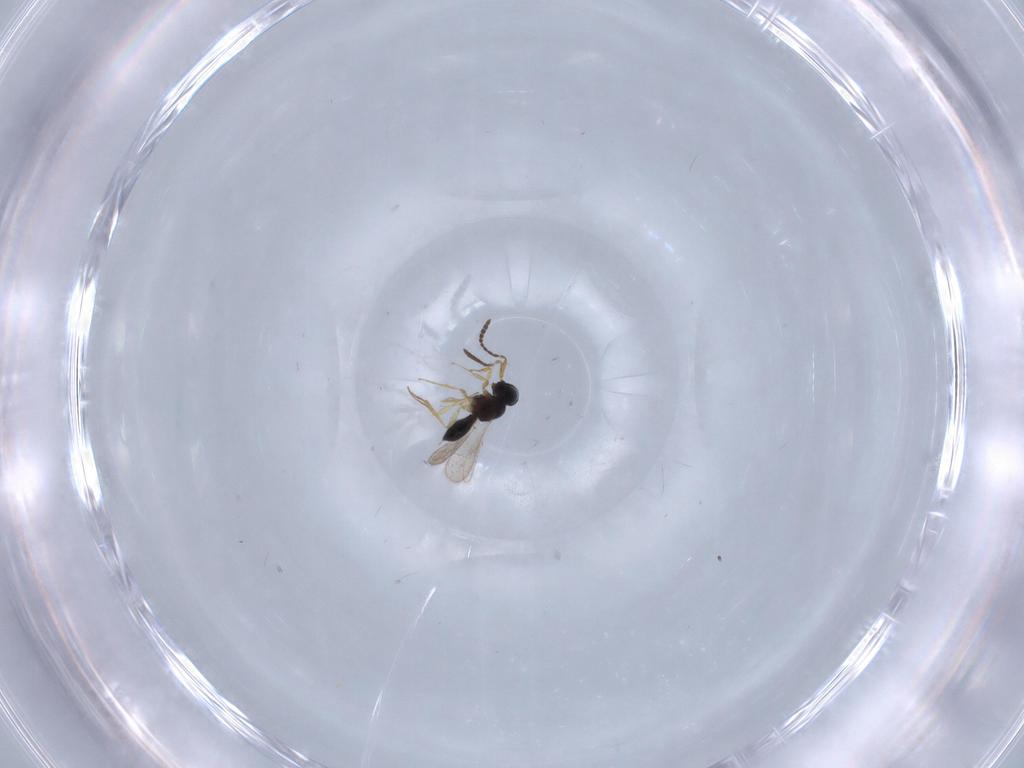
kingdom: Animalia
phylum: Arthropoda
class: Insecta
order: Hymenoptera
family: Scelionidae
